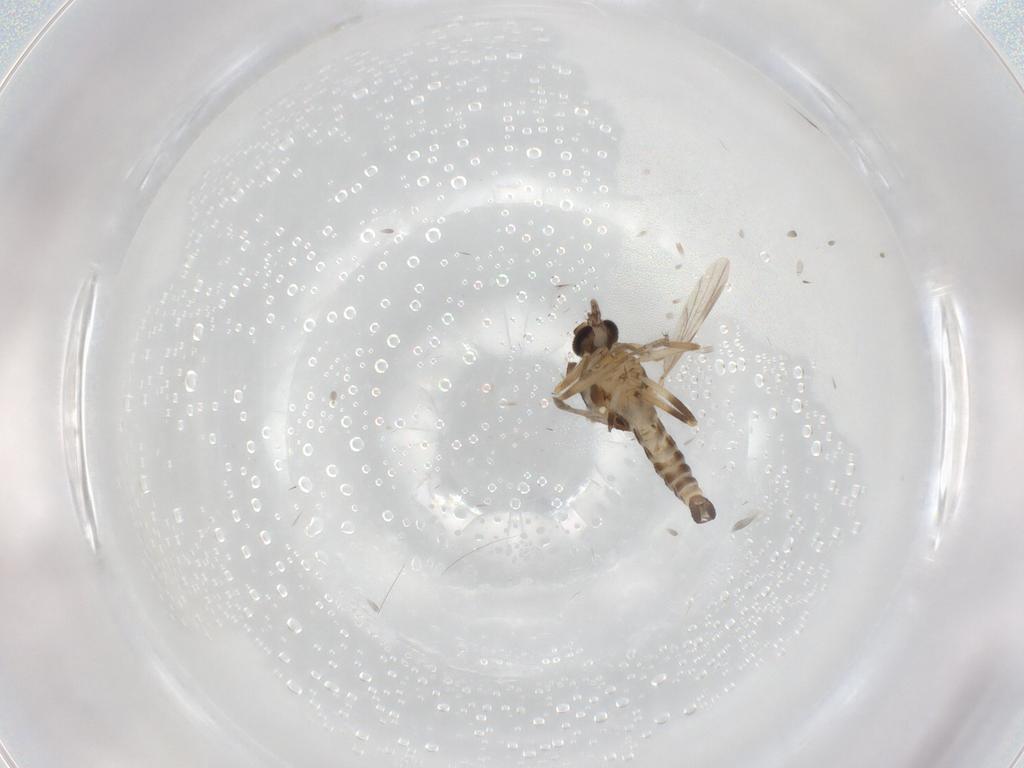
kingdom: Animalia
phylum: Arthropoda
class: Insecta
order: Diptera
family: Ceratopogonidae
